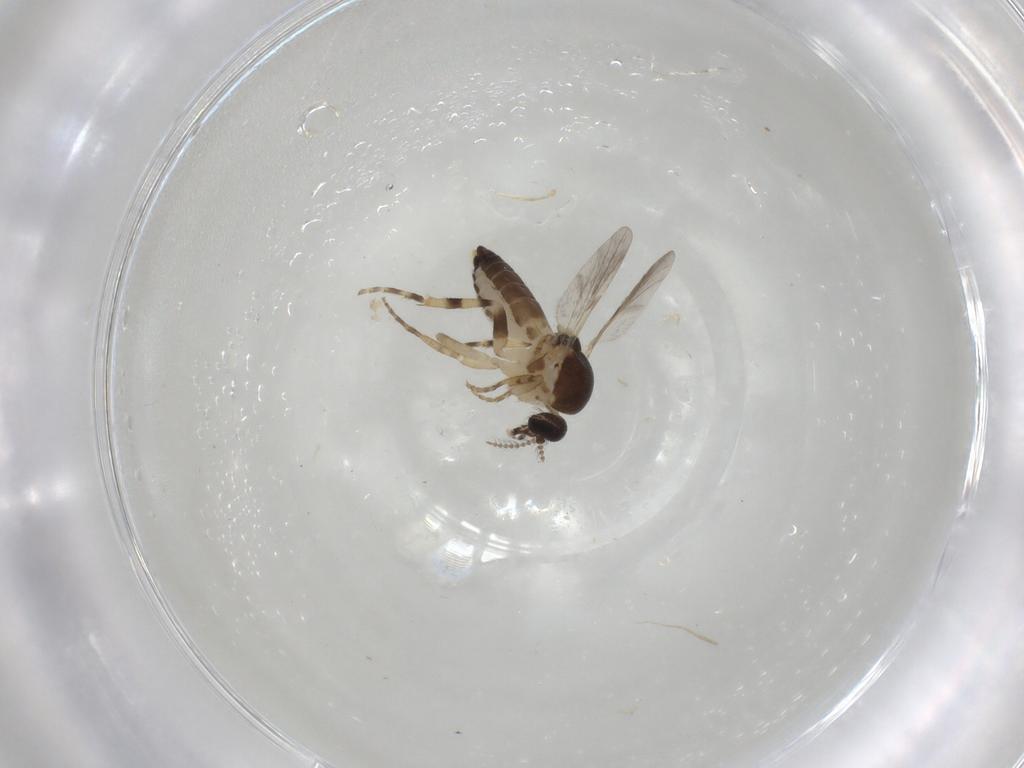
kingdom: Animalia
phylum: Arthropoda
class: Insecta
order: Diptera
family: Ceratopogonidae
